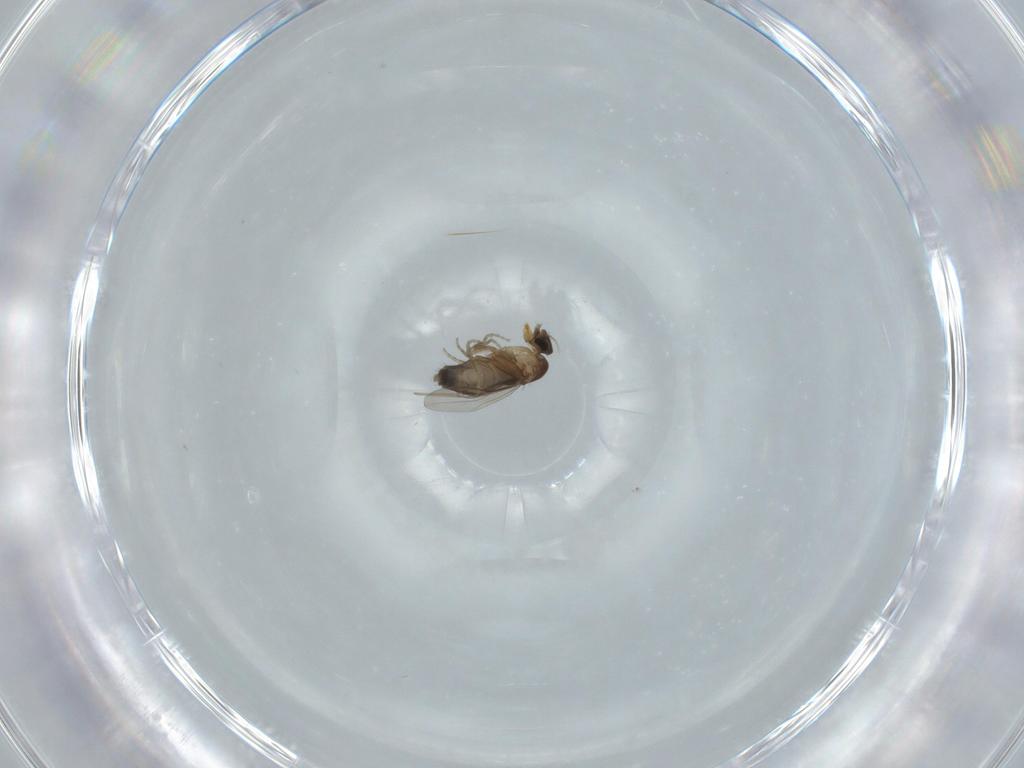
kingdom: Animalia
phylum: Arthropoda
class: Insecta
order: Diptera
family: Phoridae
